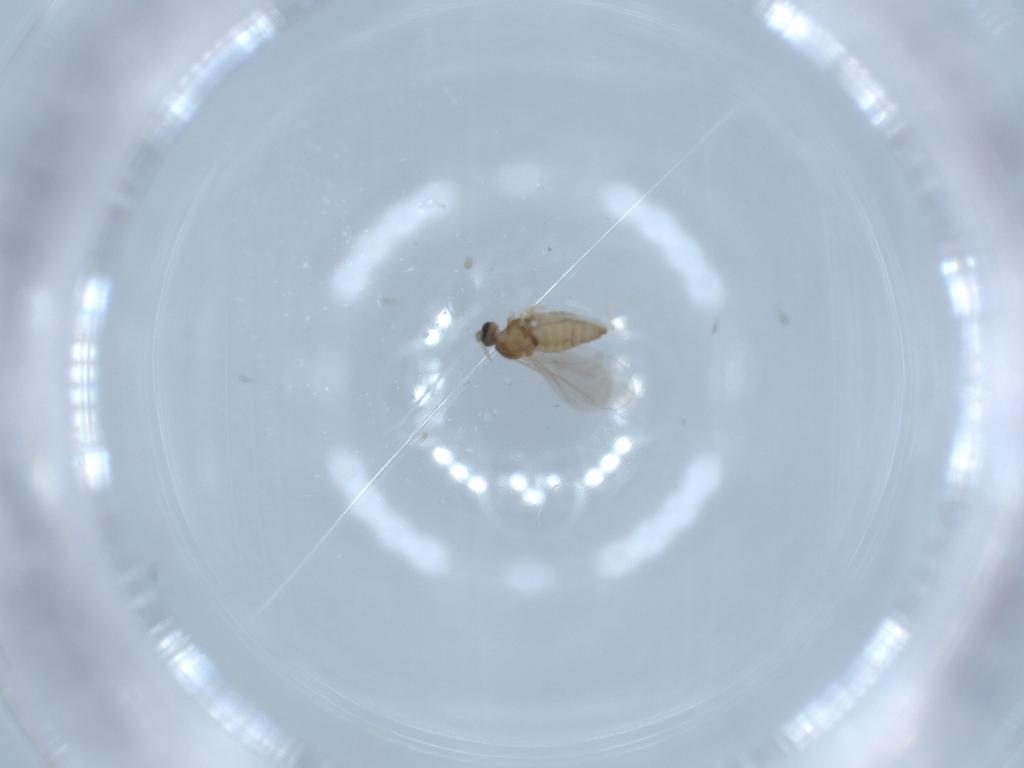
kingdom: Animalia
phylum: Arthropoda
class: Insecta
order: Diptera
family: Cecidomyiidae
